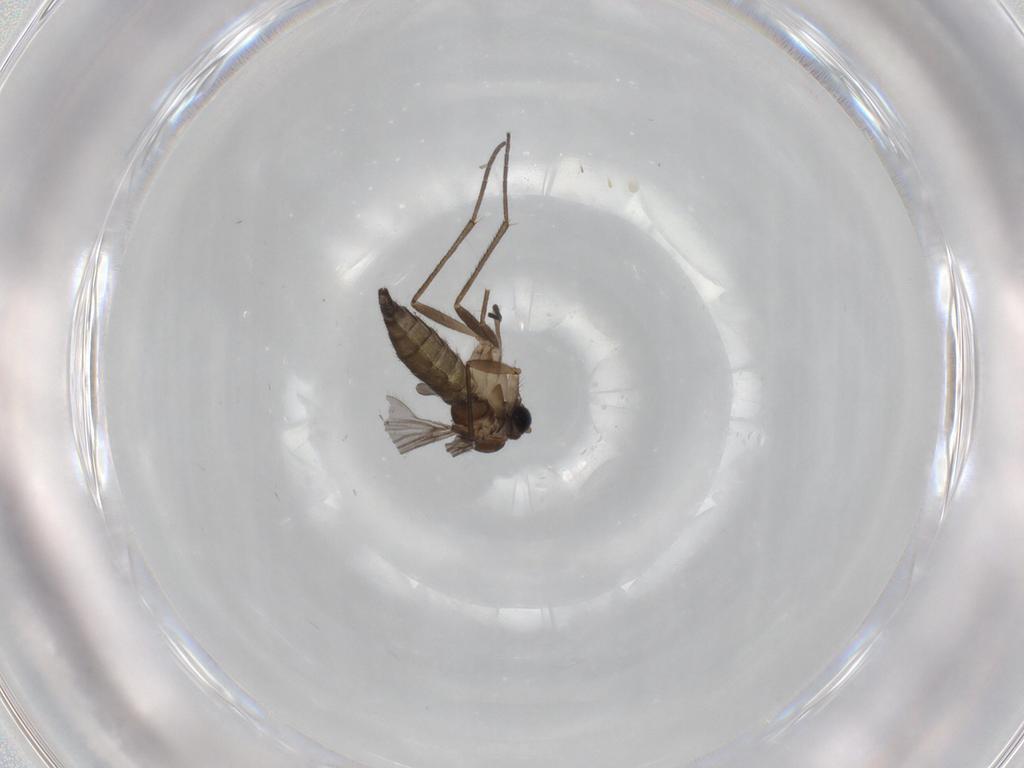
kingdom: Animalia
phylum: Arthropoda
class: Insecta
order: Diptera
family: Sciaridae
